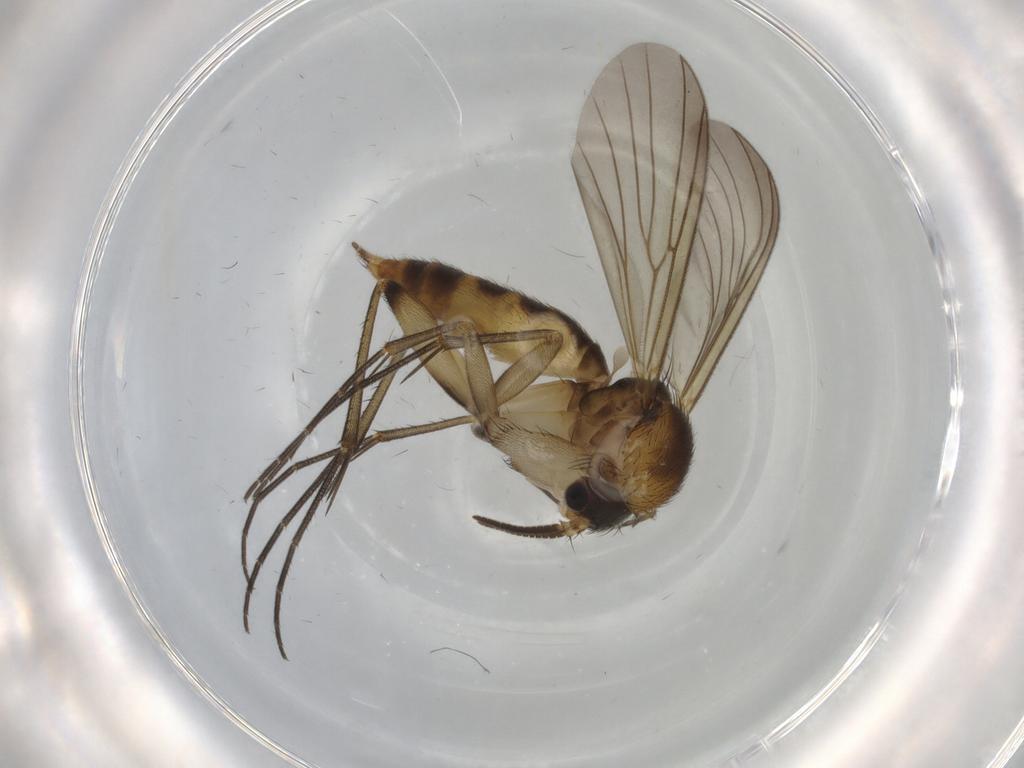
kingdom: Animalia
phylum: Arthropoda
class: Insecta
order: Diptera
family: Mycetophilidae
